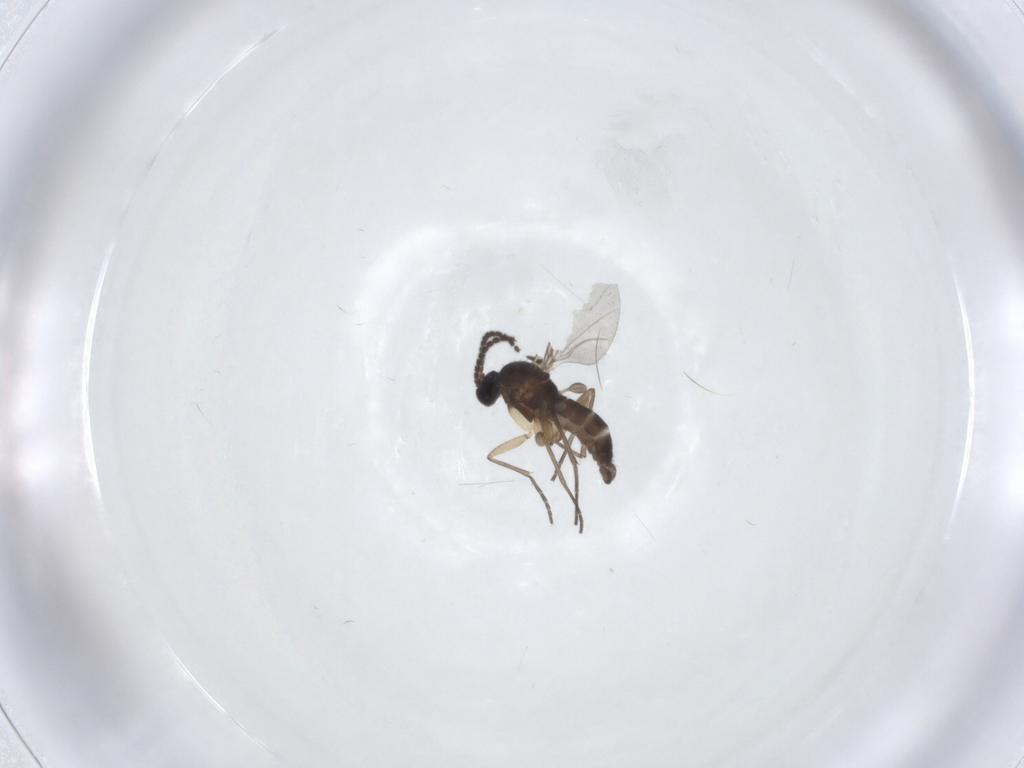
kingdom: Animalia
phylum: Arthropoda
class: Insecta
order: Diptera
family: Sciaridae
